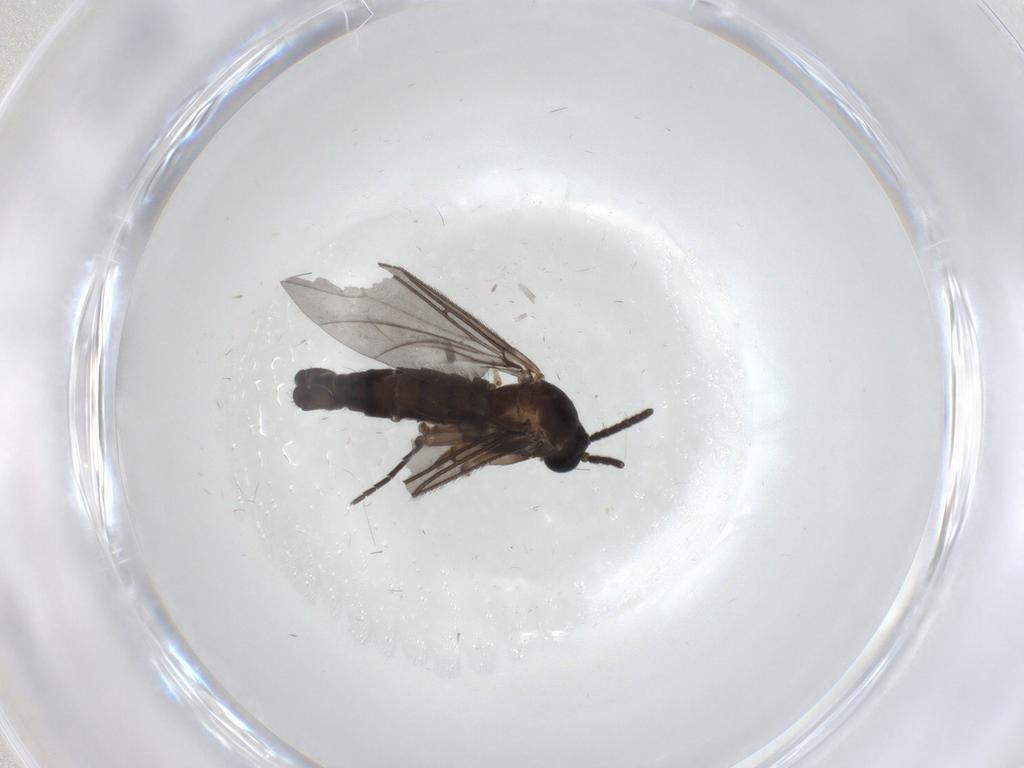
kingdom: Animalia
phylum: Arthropoda
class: Insecta
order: Diptera
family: Sciaridae
